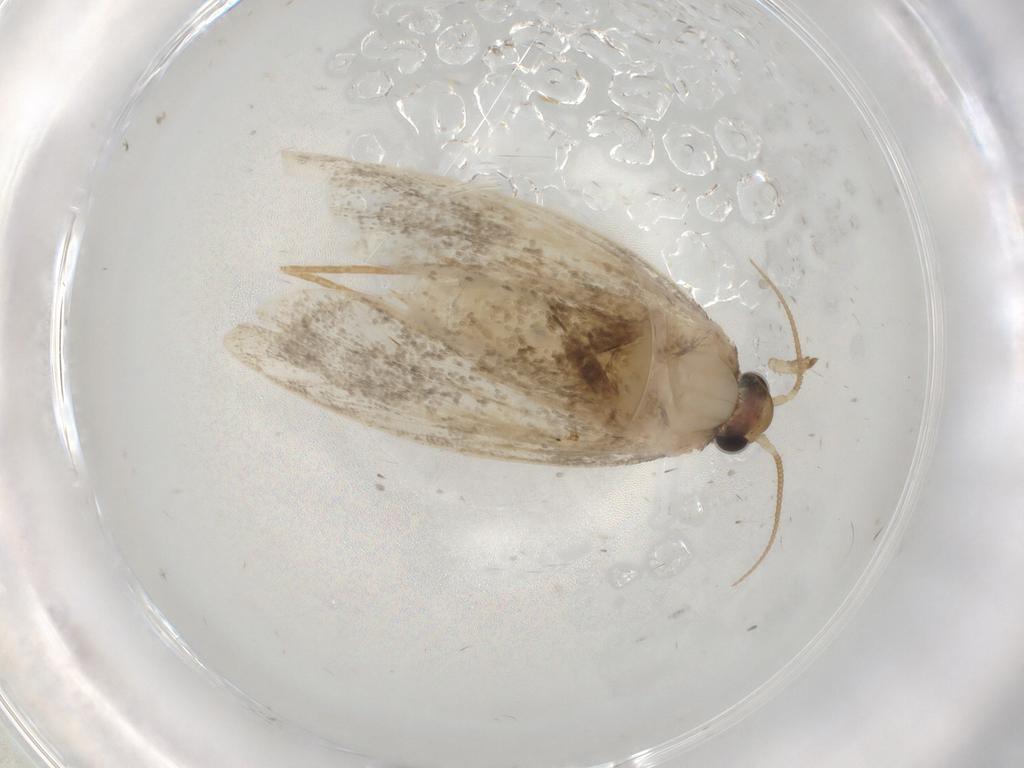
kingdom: Animalia
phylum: Arthropoda
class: Insecta
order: Lepidoptera
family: Psychidae
